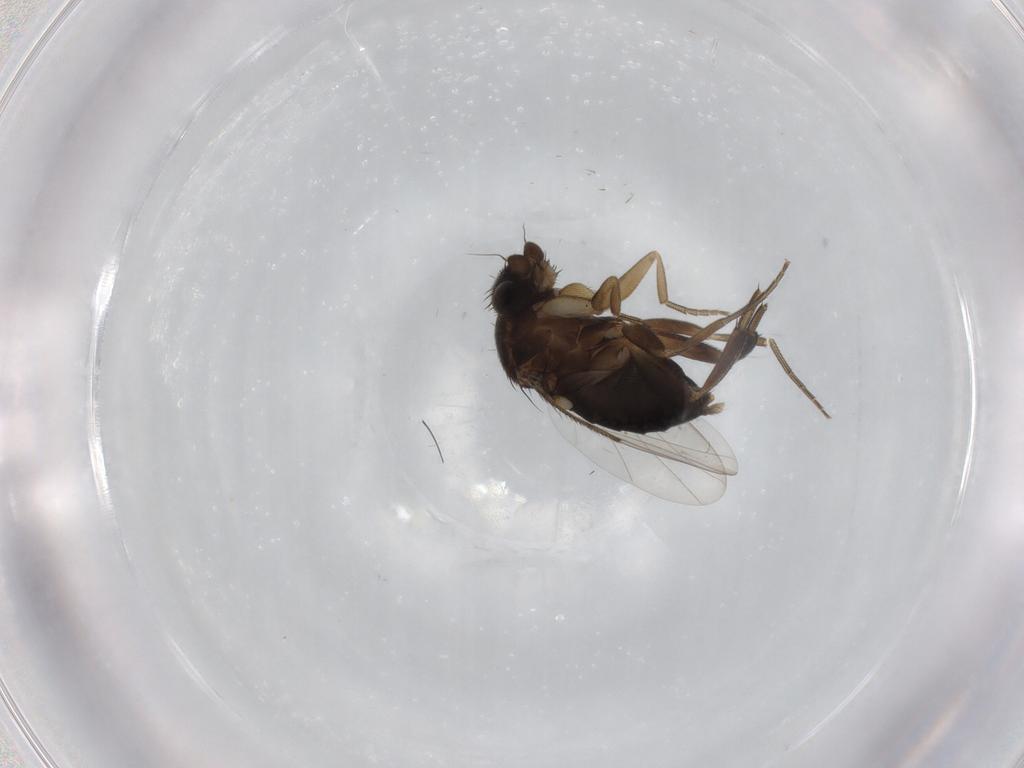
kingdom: Animalia
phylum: Arthropoda
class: Insecta
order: Diptera
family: Phoridae
